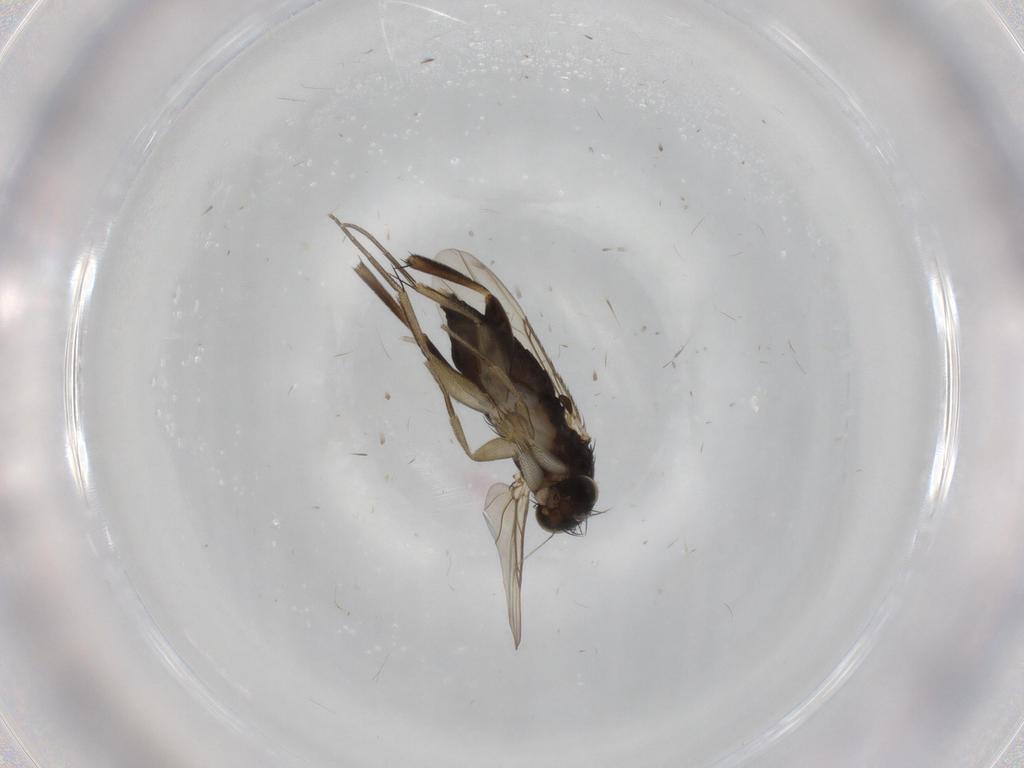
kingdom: Animalia
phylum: Arthropoda
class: Insecta
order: Diptera
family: Phoridae
